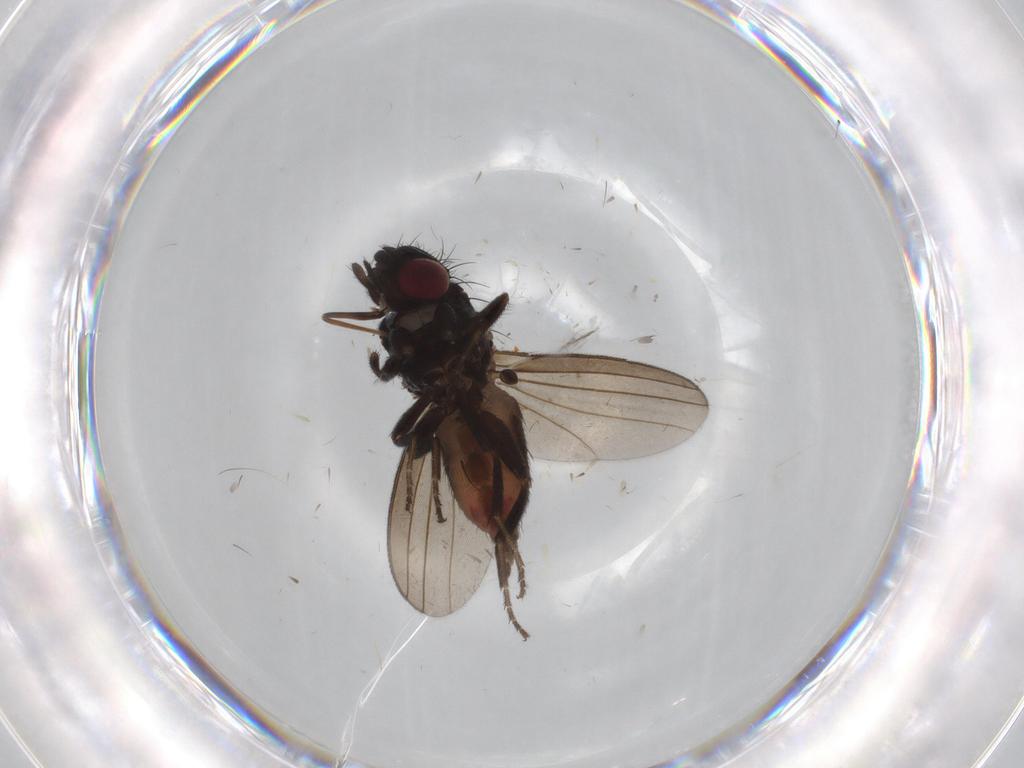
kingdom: Animalia
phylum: Arthropoda
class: Insecta
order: Diptera
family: Milichiidae
